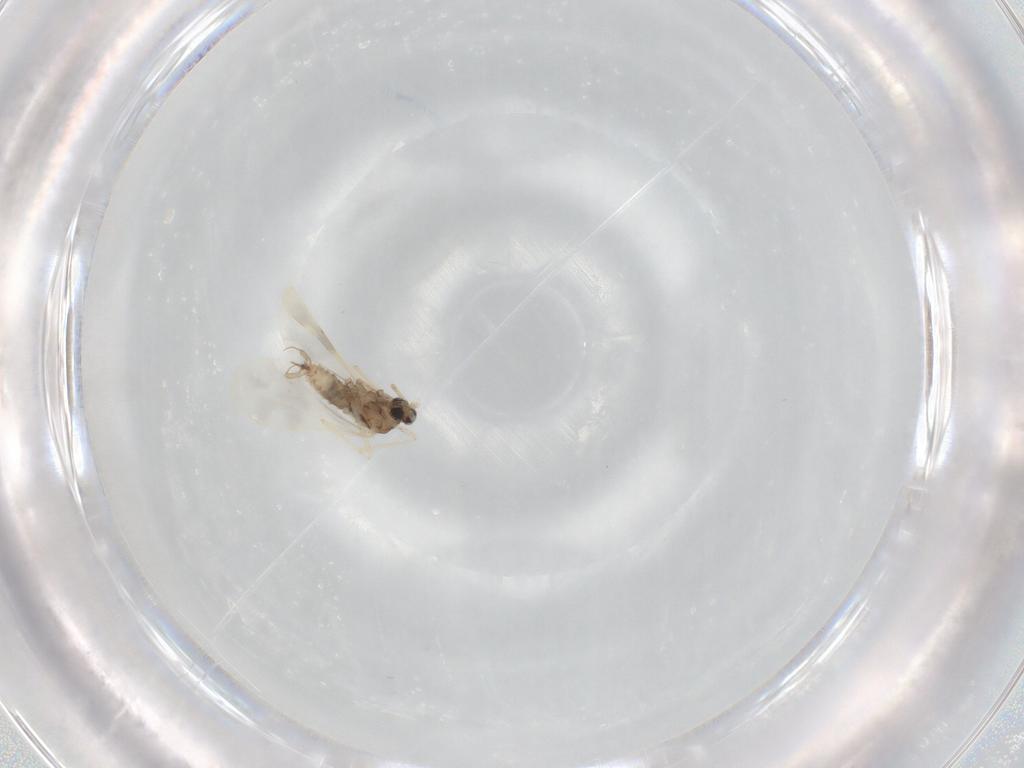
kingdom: Animalia
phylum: Arthropoda
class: Insecta
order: Diptera
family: Cecidomyiidae
